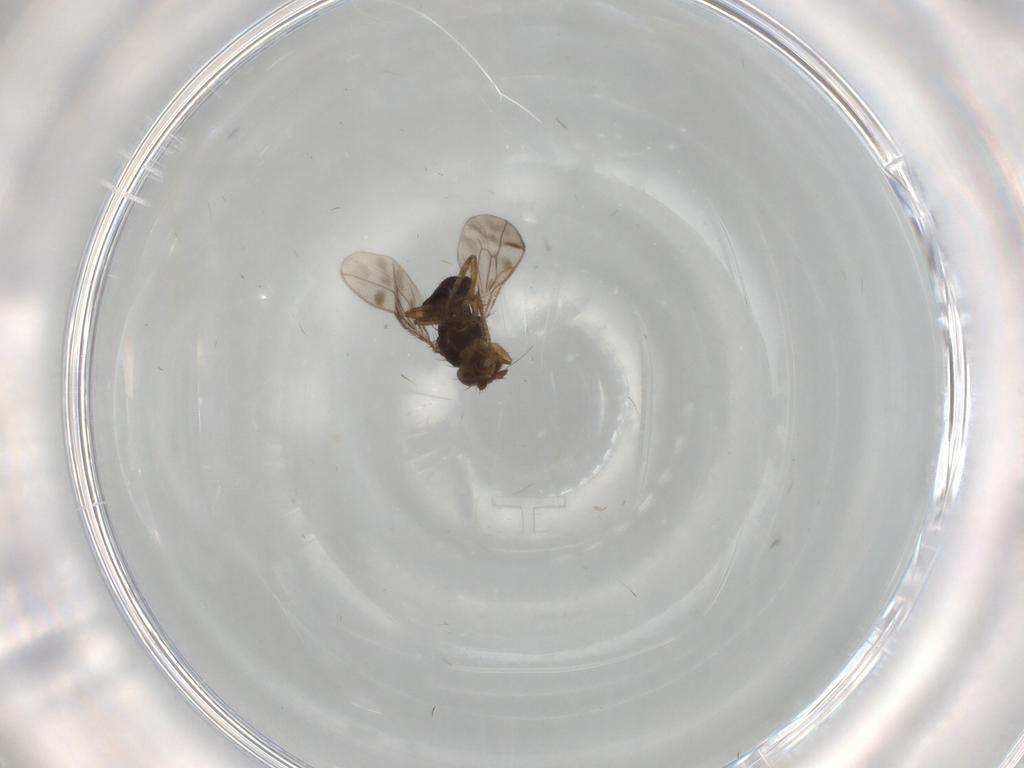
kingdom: Animalia
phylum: Arthropoda
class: Insecta
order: Diptera
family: Sphaeroceridae
